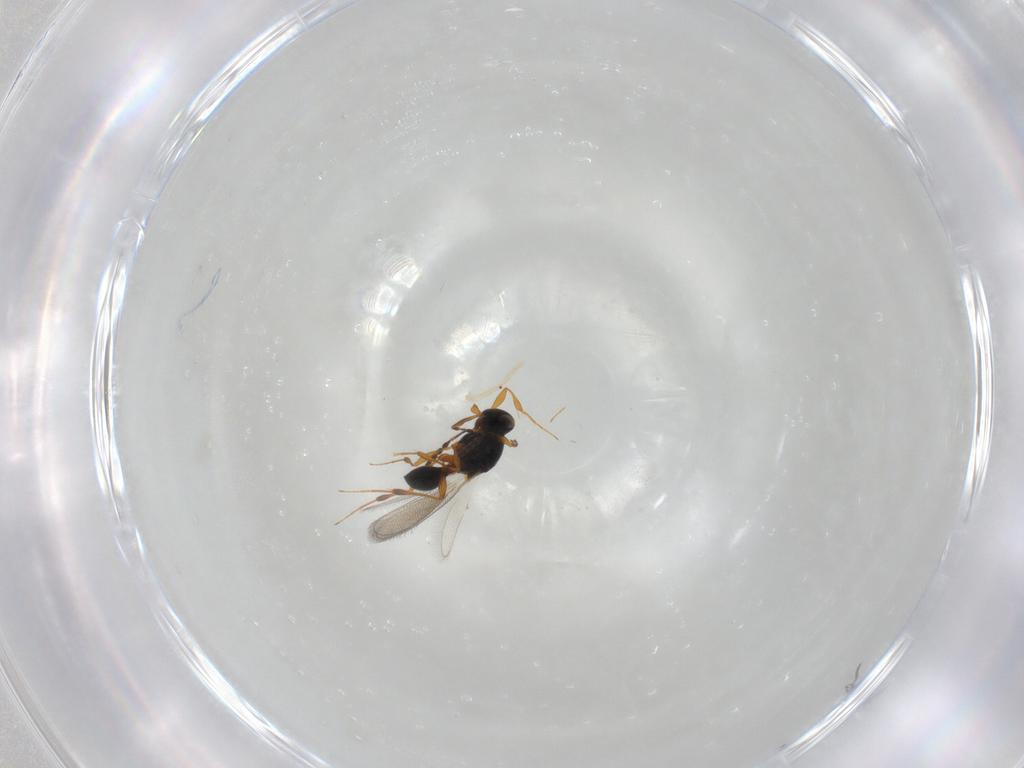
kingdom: Animalia
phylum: Arthropoda
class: Insecta
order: Hymenoptera
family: Platygastridae
